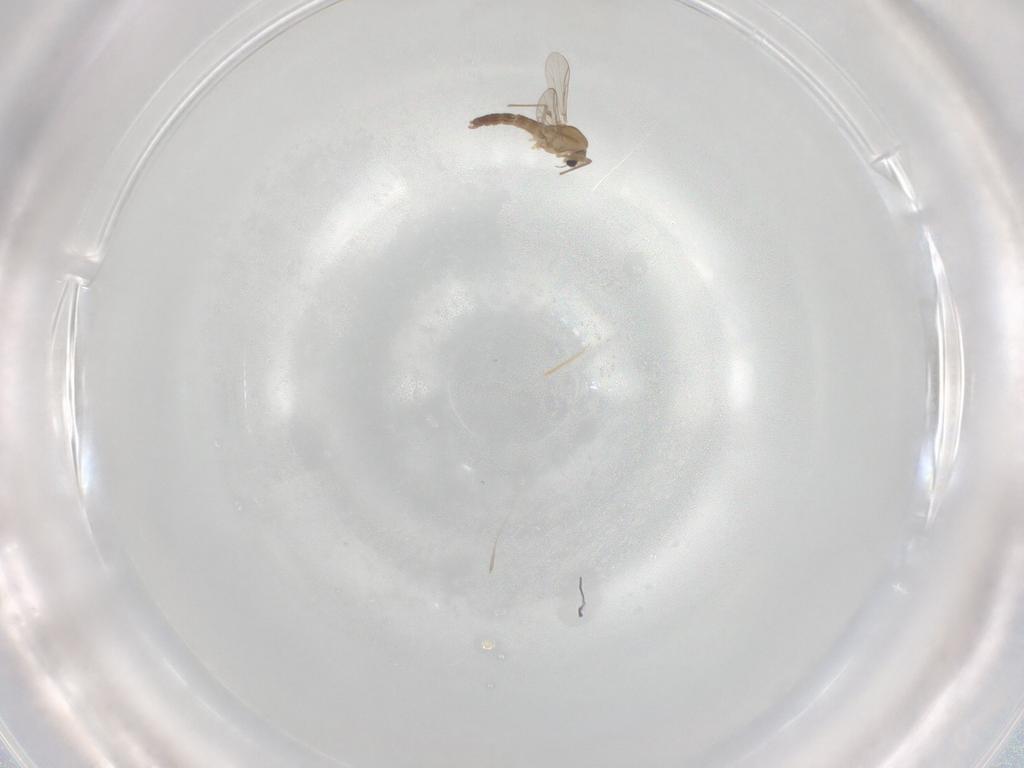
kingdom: Animalia
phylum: Arthropoda
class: Insecta
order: Diptera
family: Chironomidae
